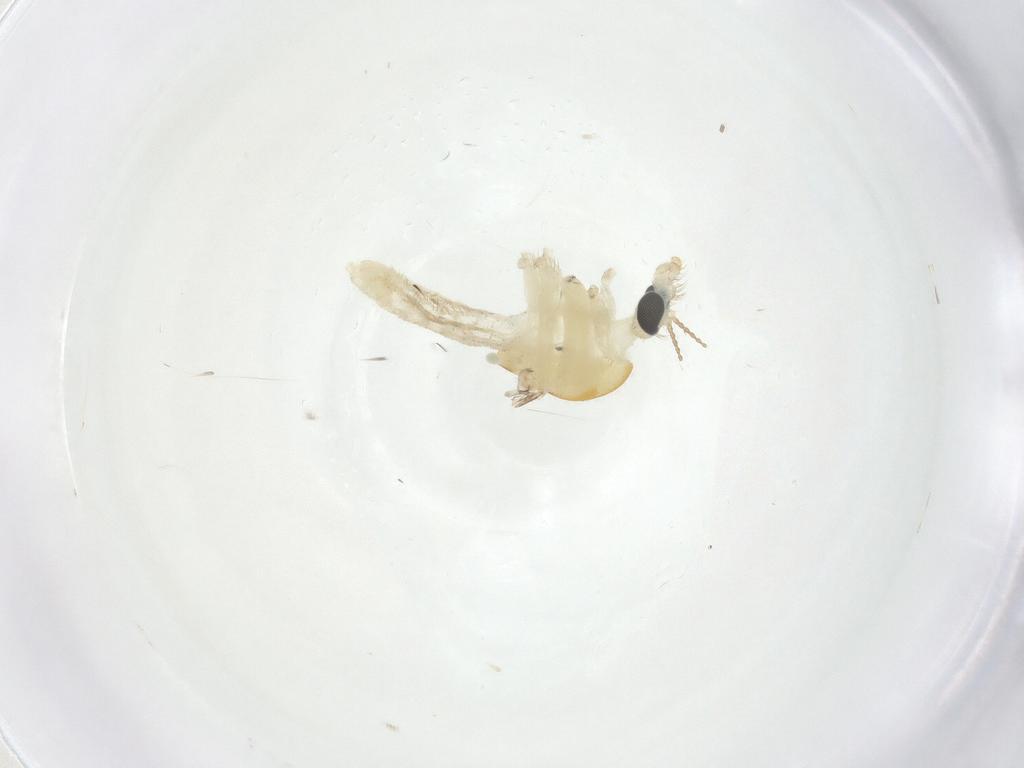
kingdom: Animalia
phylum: Arthropoda
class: Insecta
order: Diptera
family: Chironomidae
